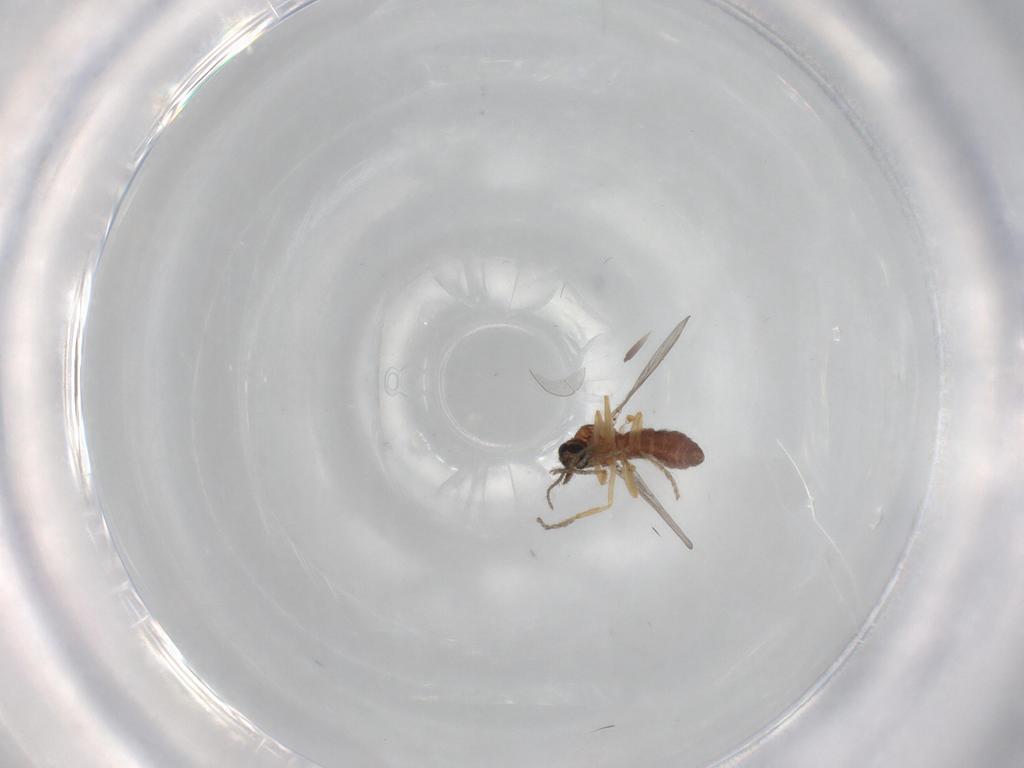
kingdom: Animalia
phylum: Arthropoda
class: Insecta
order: Diptera
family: Ceratopogonidae
